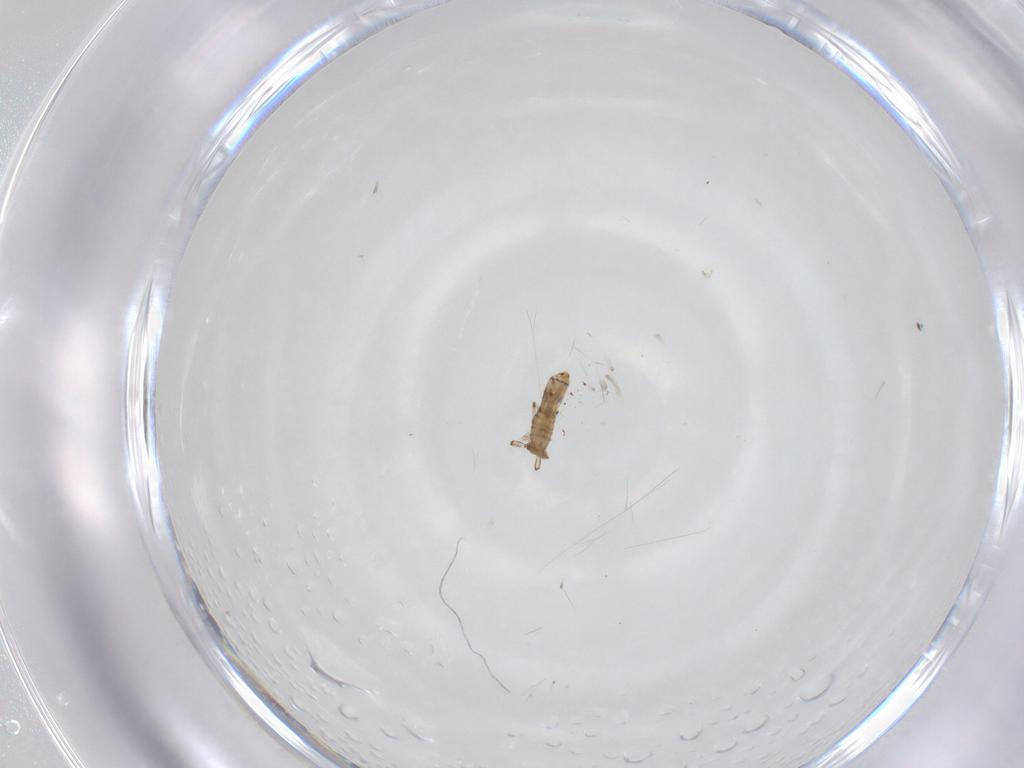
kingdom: Animalia
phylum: Arthropoda
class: Collembola
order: Entomobryomorpha
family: Entomobryidae
